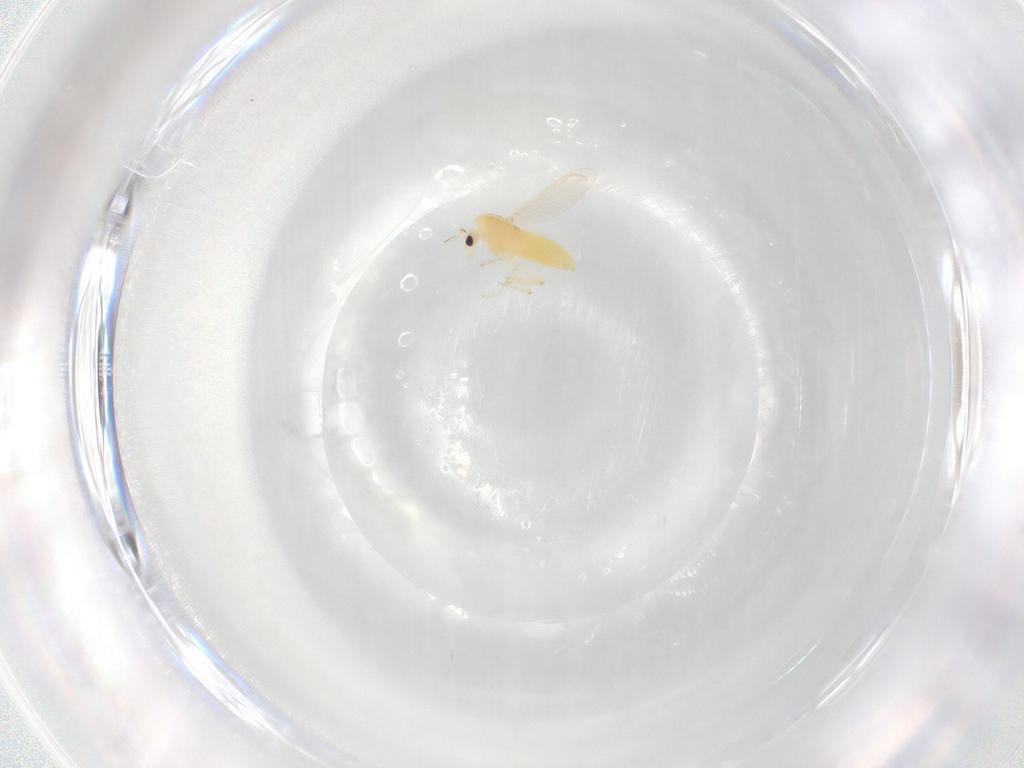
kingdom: Animalia
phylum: Arthropoda
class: Insecta
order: Diptera
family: Chironomidae
